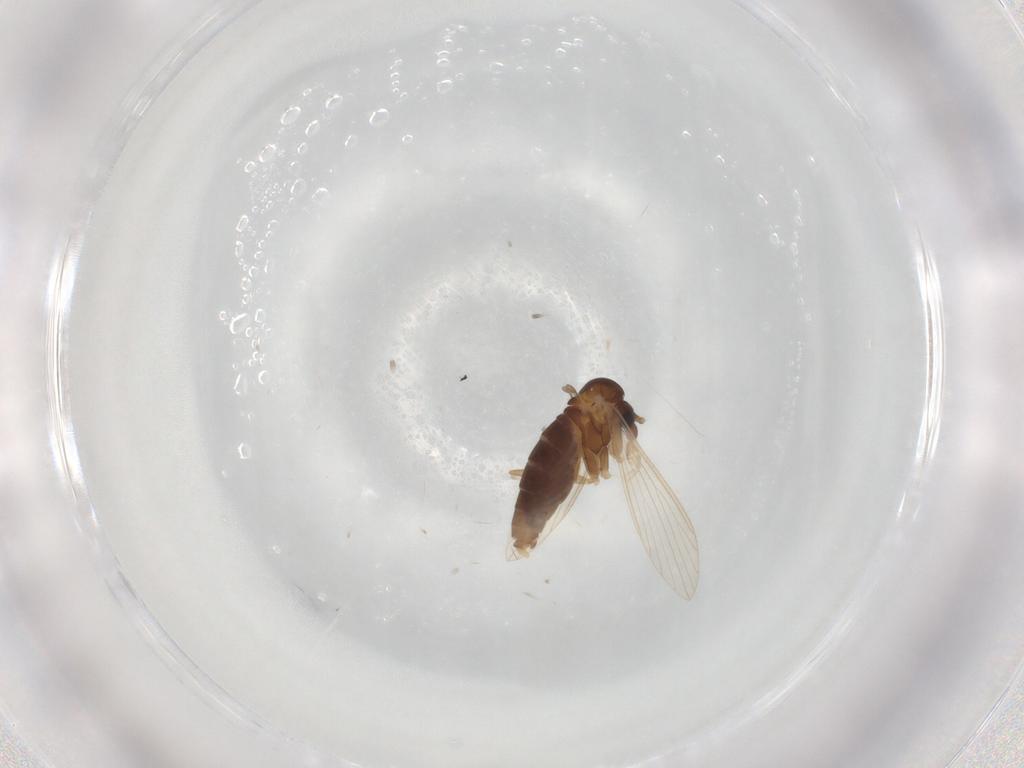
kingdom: Animalia
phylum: Arthropoda
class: Insecta
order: Diptera
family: Psychodidae
